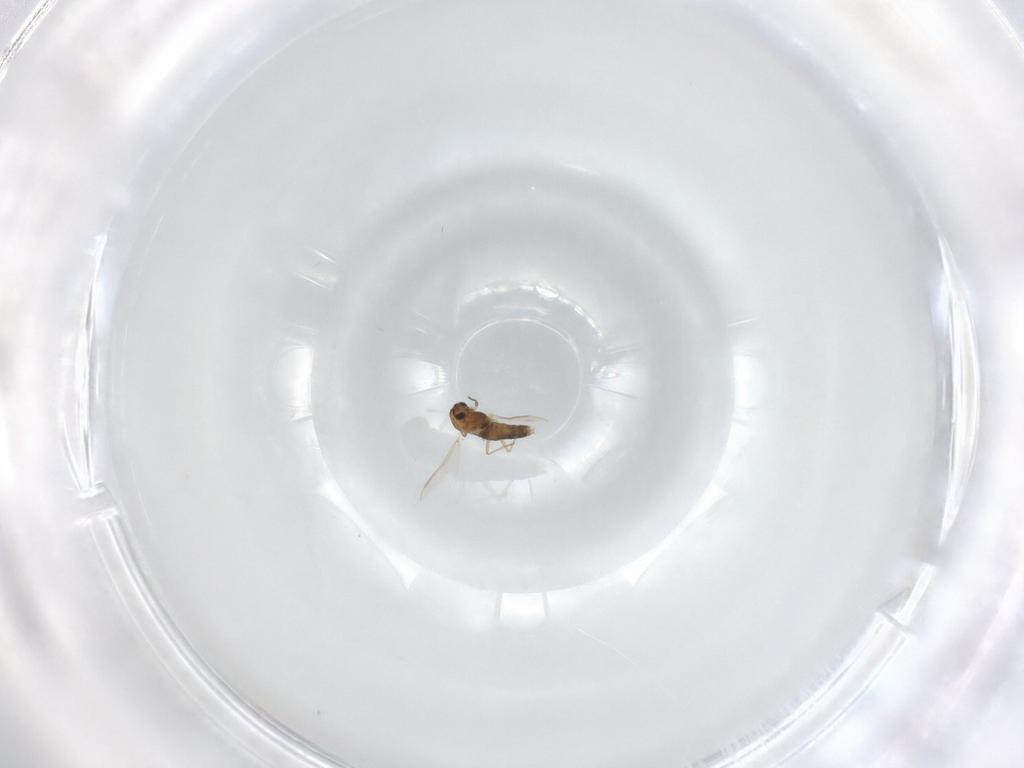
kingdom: Animalia
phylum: Arthropoda
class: Insecta
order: Diptera
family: Chironomidae
